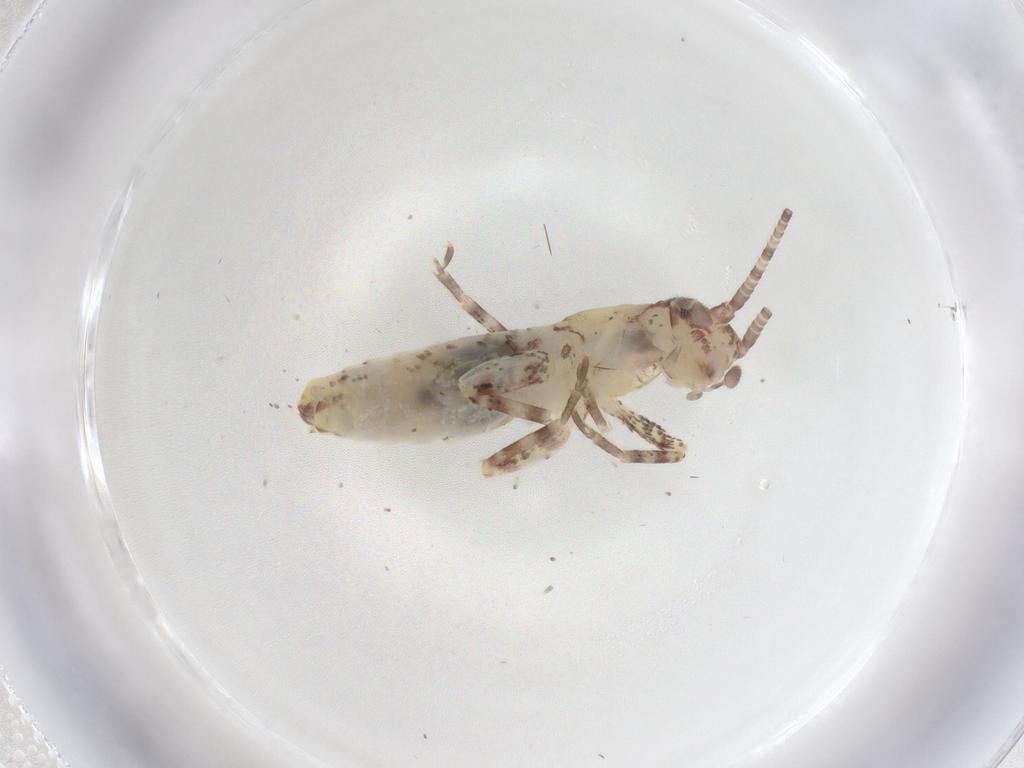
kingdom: Animalia
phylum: Arthropoda
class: Insecta
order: Orthoptera
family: Mogoplistidae
